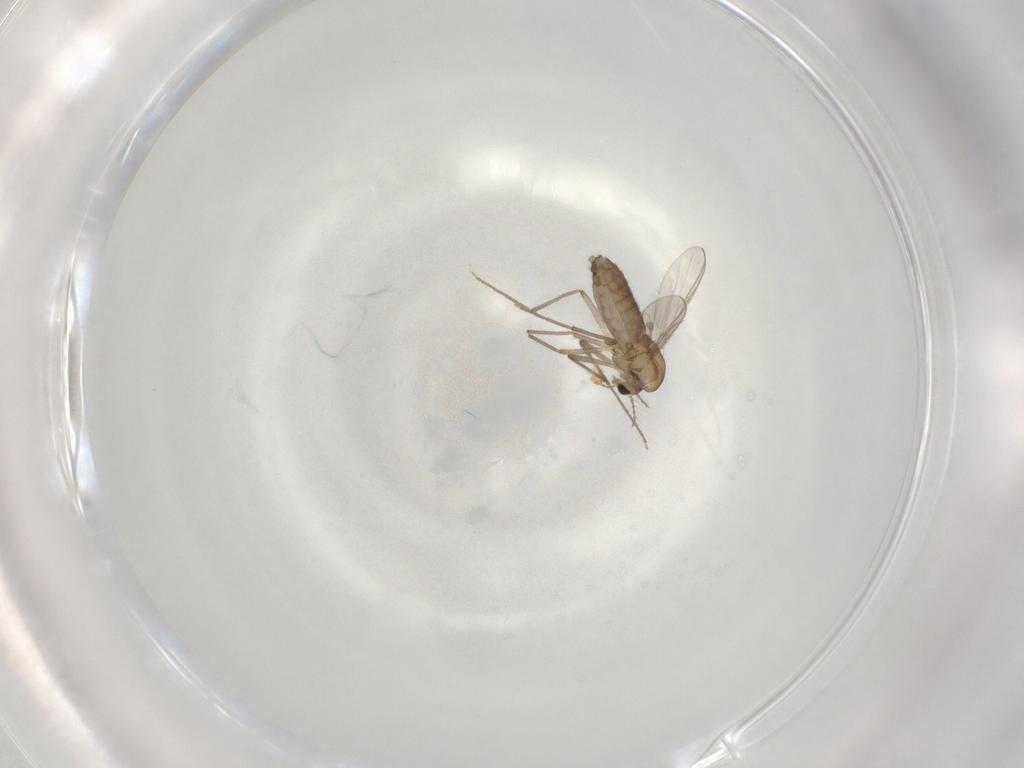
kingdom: Animalia
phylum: Arthropoda
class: Insecta
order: Diptera
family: Chironomidae
